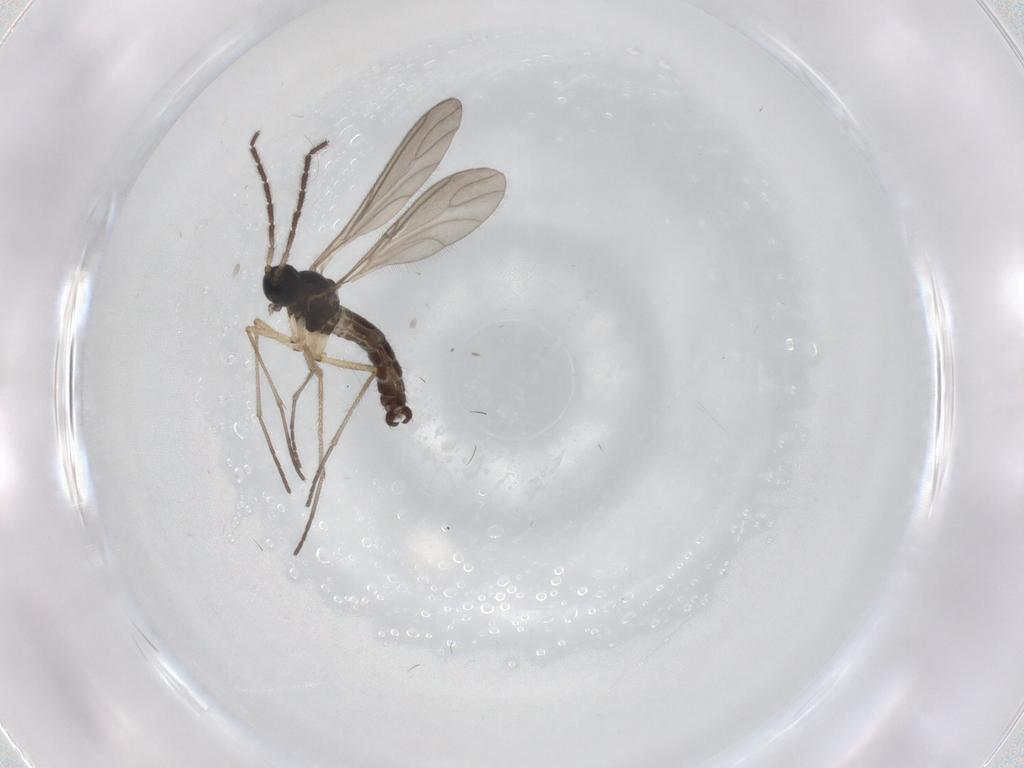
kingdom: Animalia
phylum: Arthropoda
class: Insecta
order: Diptera
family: Sciaridae
